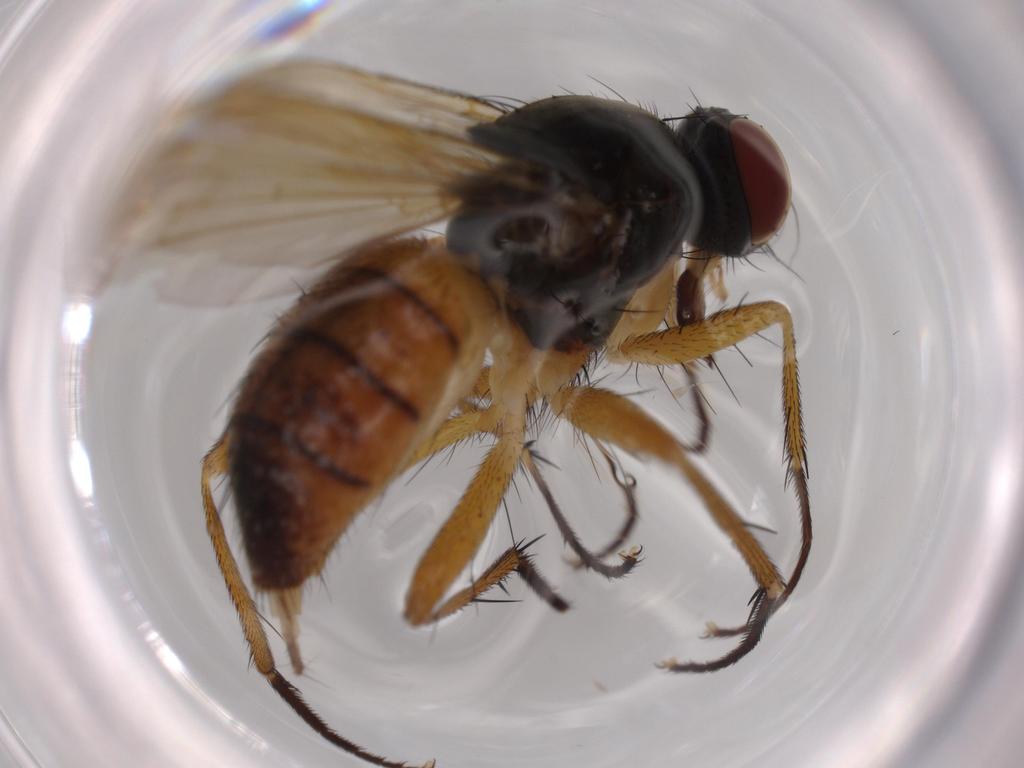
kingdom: Animalia
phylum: Arthropoda
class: Insecta
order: Diptera
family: Muscidae
